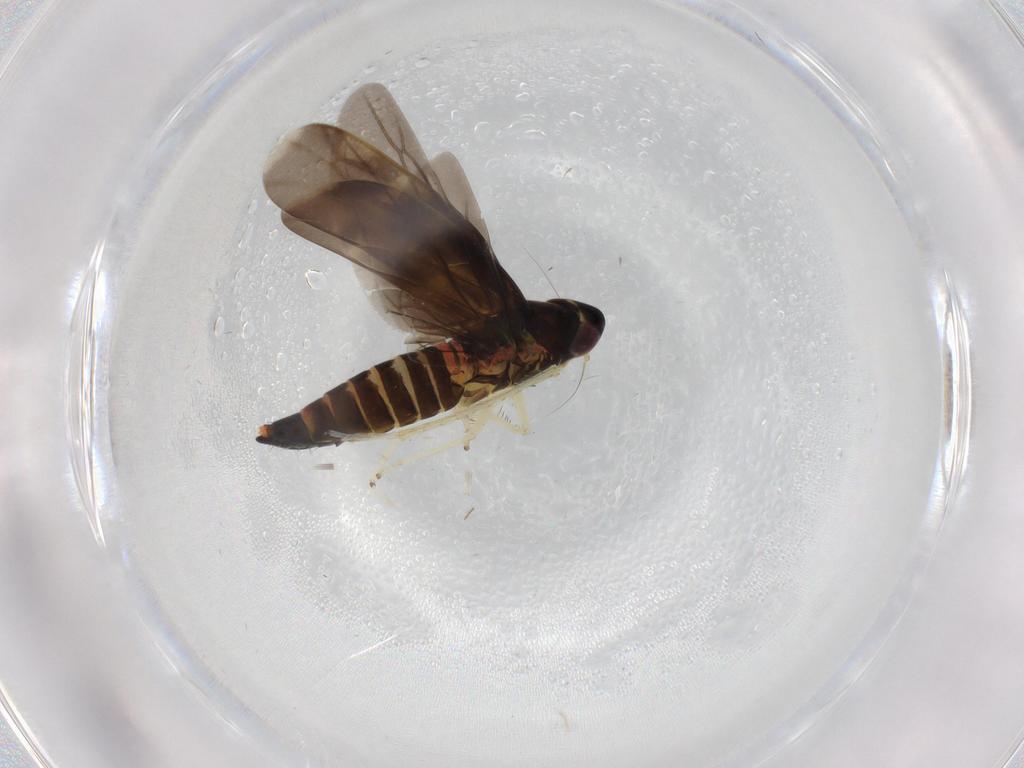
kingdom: Animalia
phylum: Arthropoda
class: Insecta
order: Hemiptera
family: Cicadellidae
